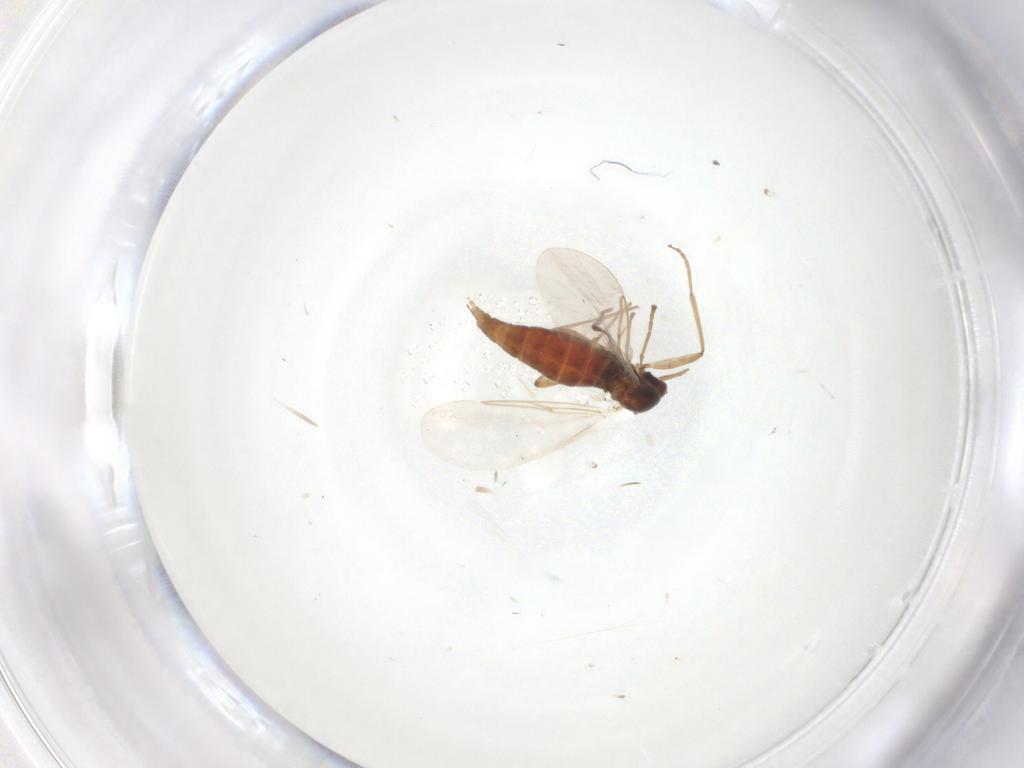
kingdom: Animalia
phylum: Arthropoda
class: Insecta
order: Diptera
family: Cecidomyiidae
